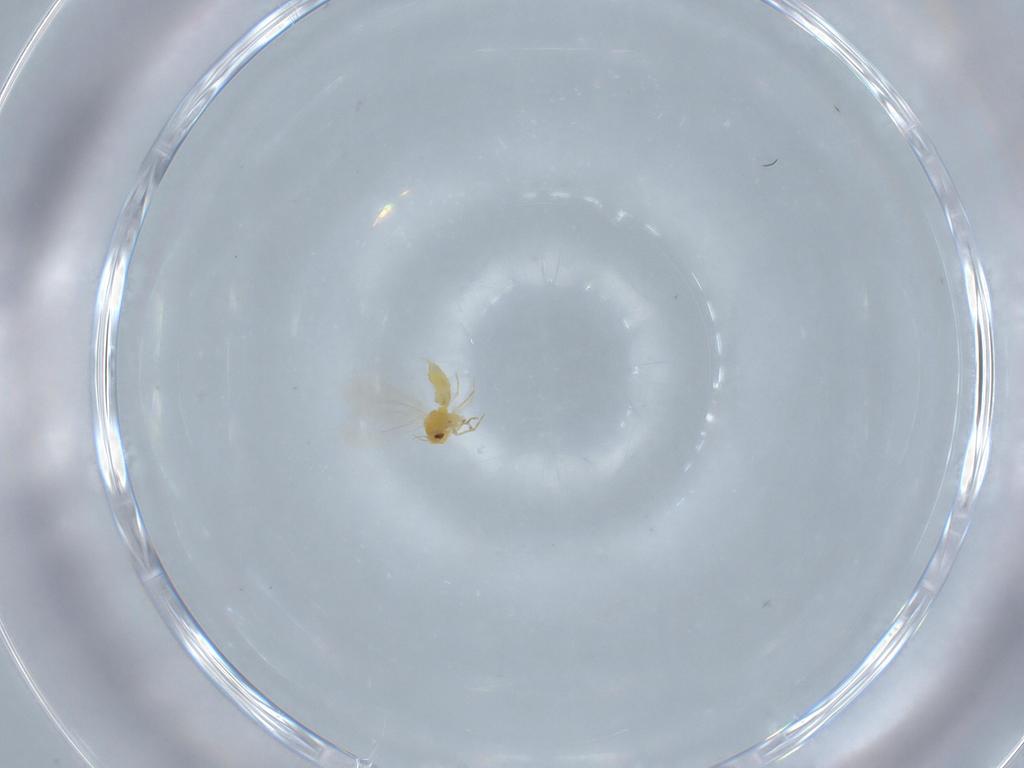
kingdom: Animalia
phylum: Arthropoda
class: Insecta
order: Hemiptera
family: Aleyrodidae
